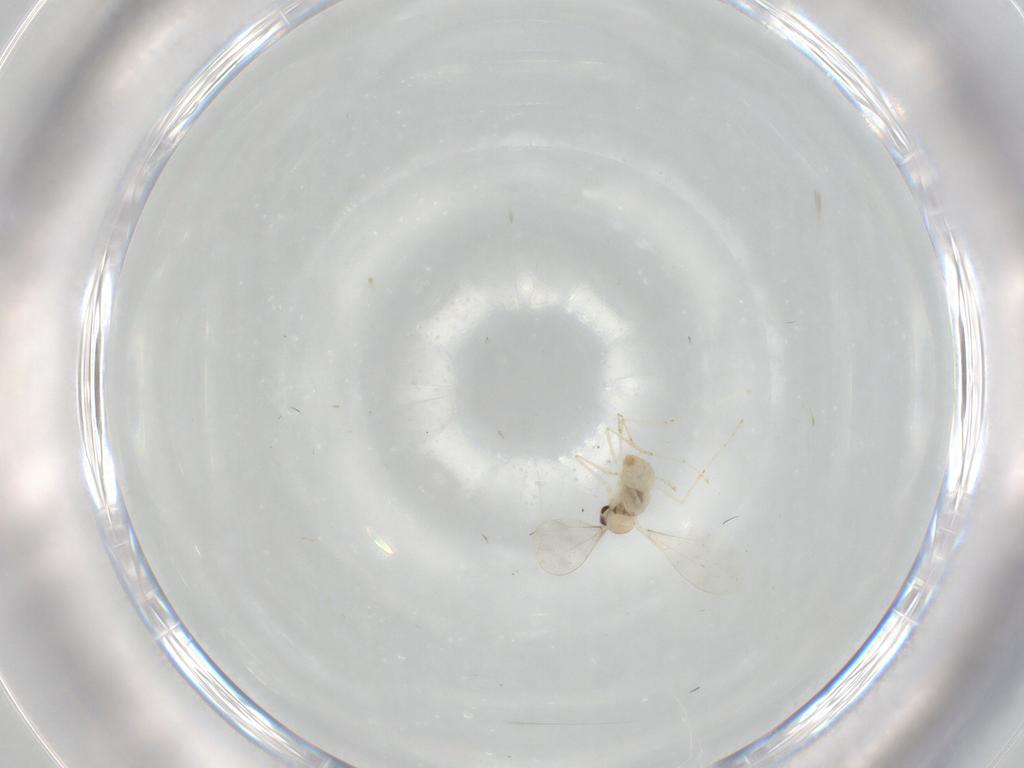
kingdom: Animalia
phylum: Arthropoda
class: Insecta
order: Diptera
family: Cecidomyiidae
